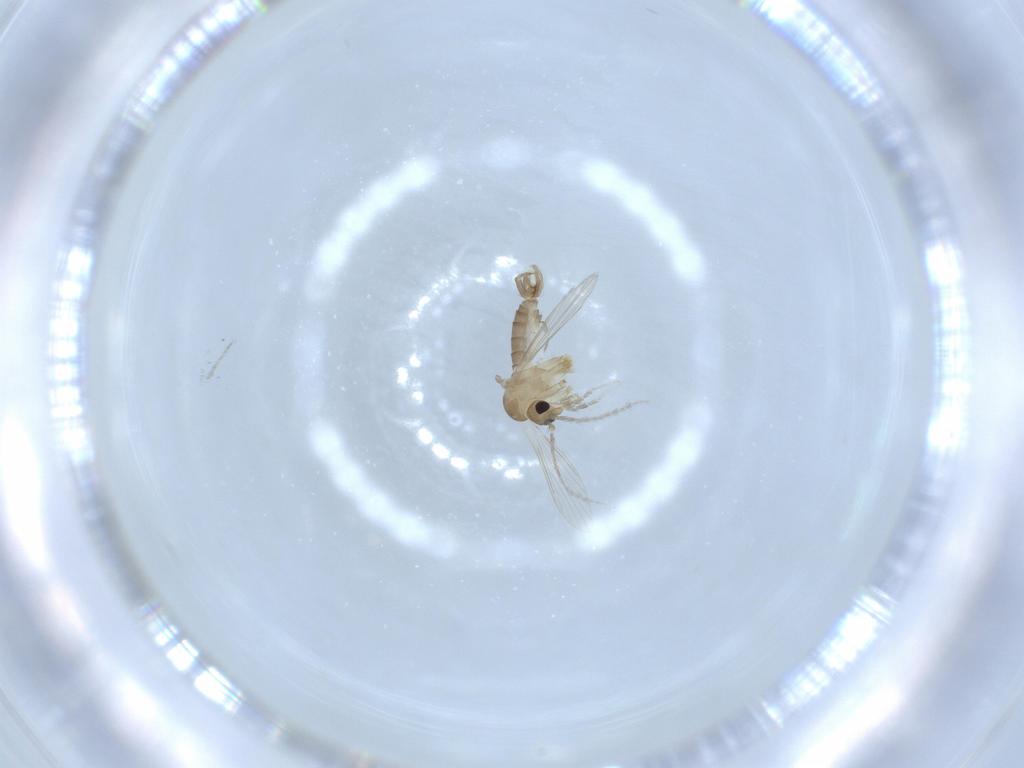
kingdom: Animalia
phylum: Arthropoda
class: Insecta
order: Diptera
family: Psychodidae
